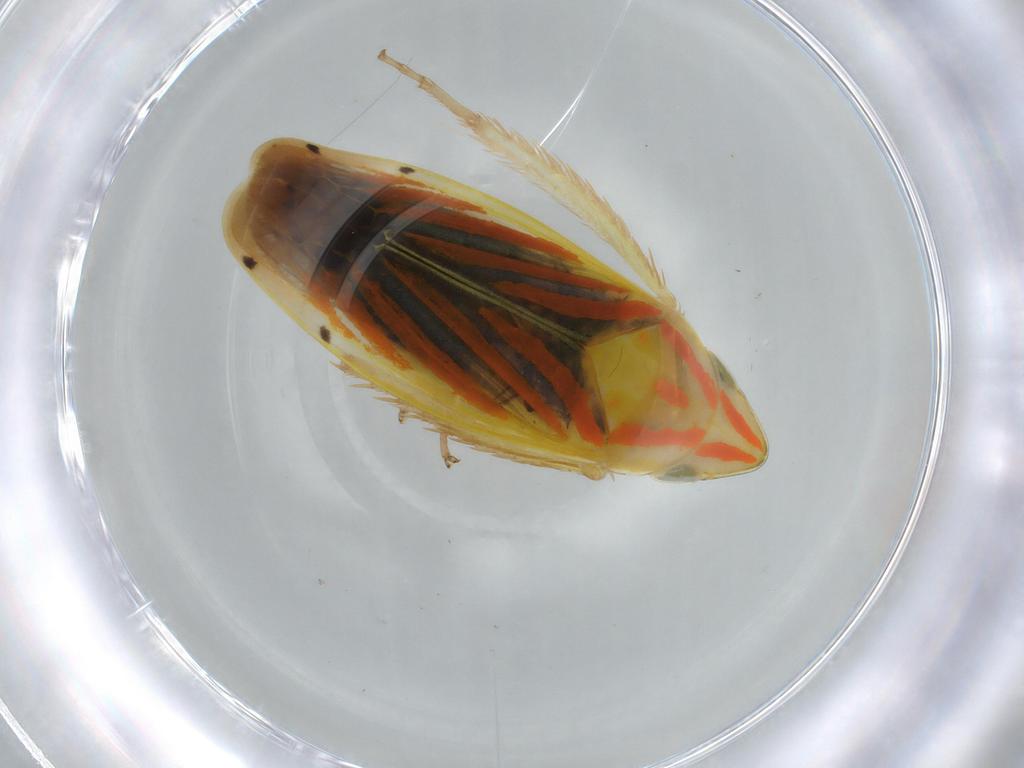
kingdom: Animalia
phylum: Arthropoda
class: Insecta
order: Hemiptera
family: Cicadellidae
